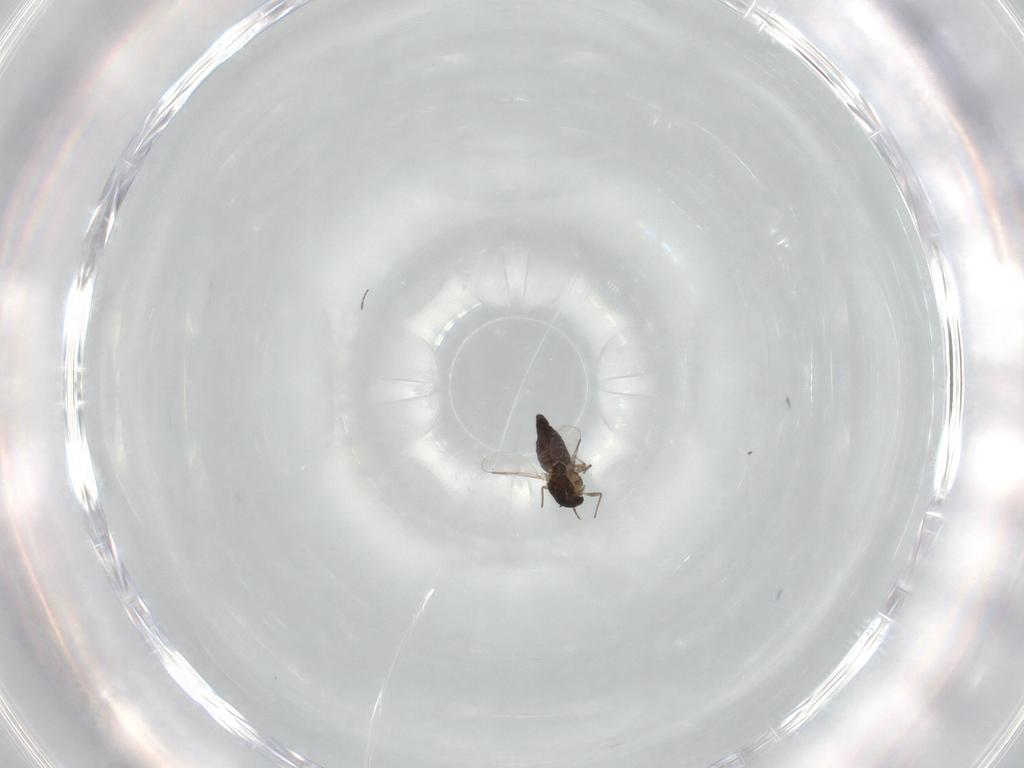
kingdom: Animalia
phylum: Arthropoda
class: Insecta
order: Diptera
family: Chironomidae
